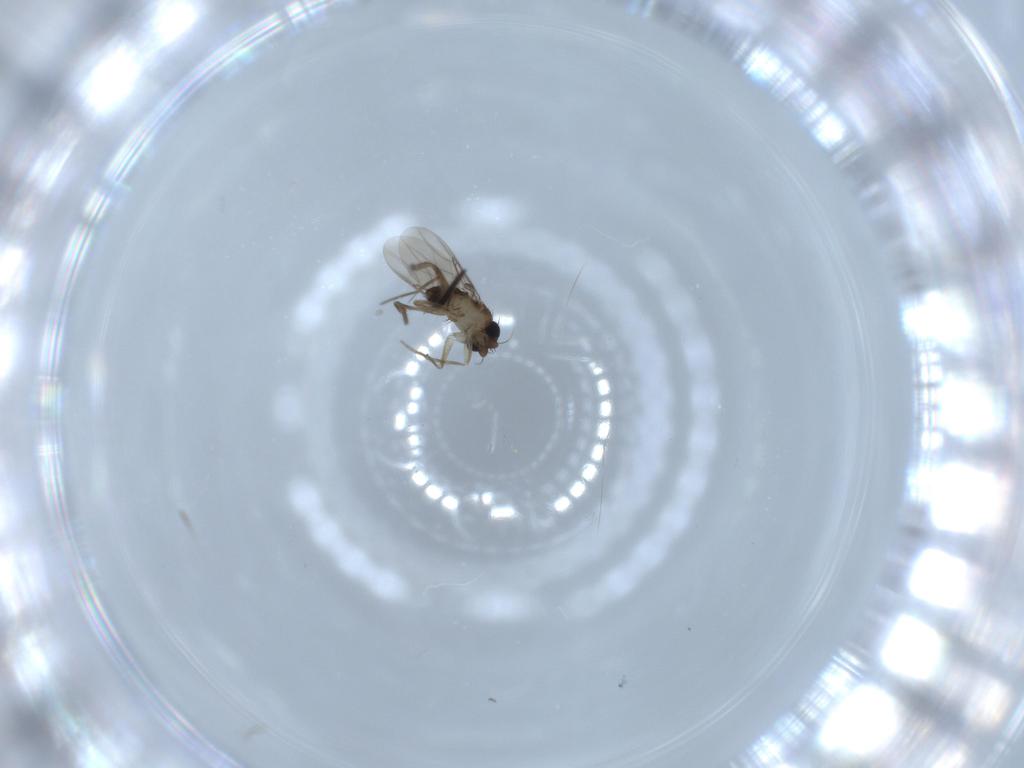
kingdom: Animalia
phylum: Arthropoda
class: Insecta
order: Diptera
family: Phoridae
